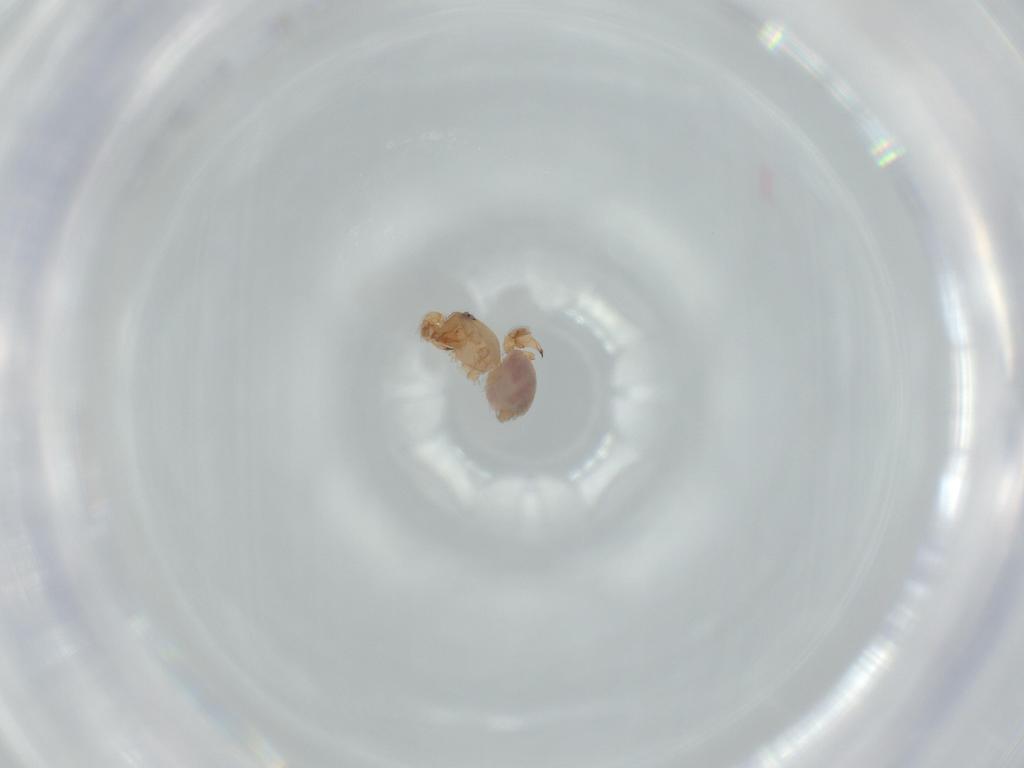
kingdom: Animalia
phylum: Arthropoda
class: Arachnida
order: Araneae
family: Oonopidae
